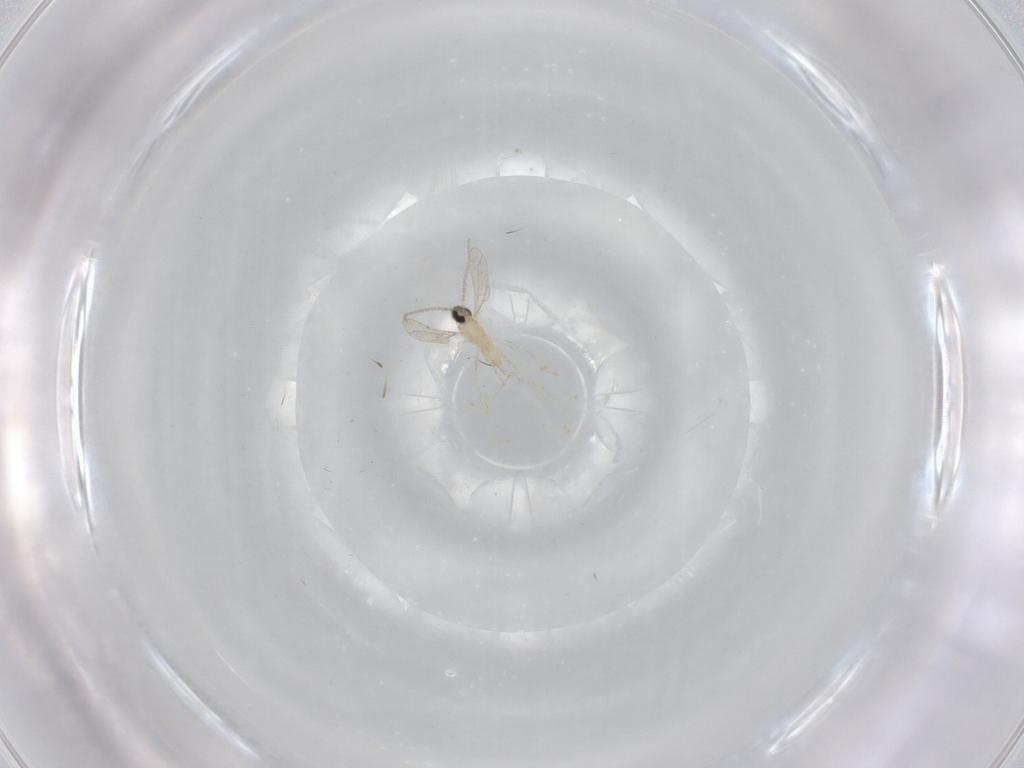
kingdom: Animalia
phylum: Arthropoda
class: Insecta
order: Diptera
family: Cecidomyiidae
